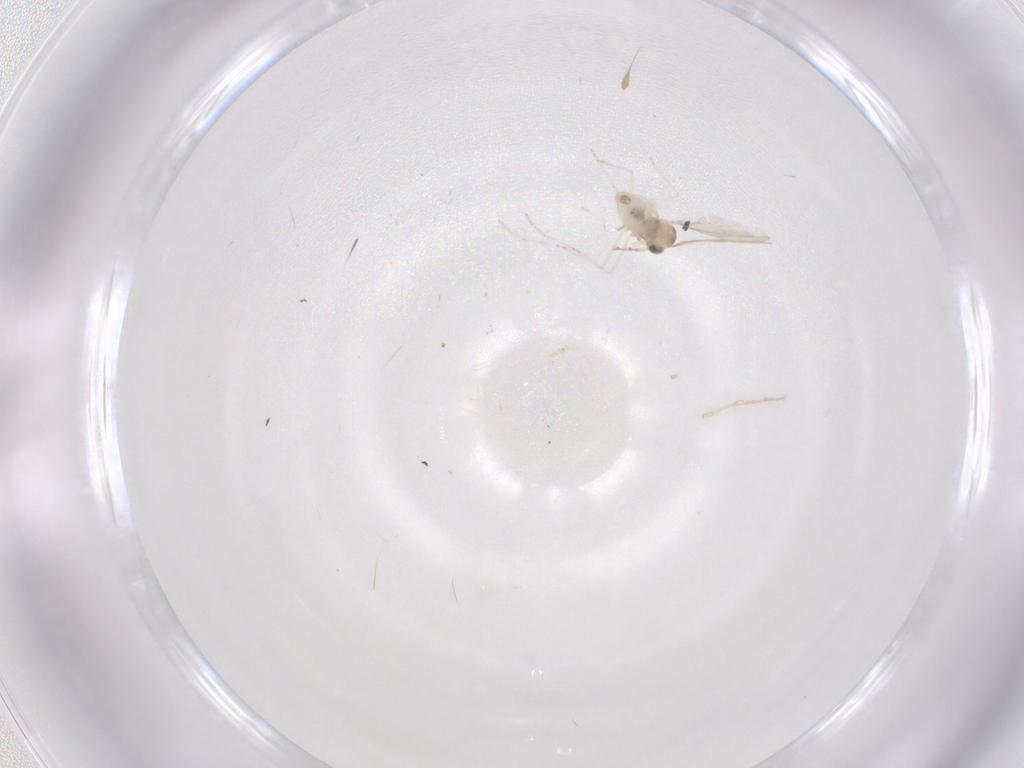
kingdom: Animalia
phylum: Arthropoda
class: Insecta
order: Diptera
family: Cecidomyiidae
